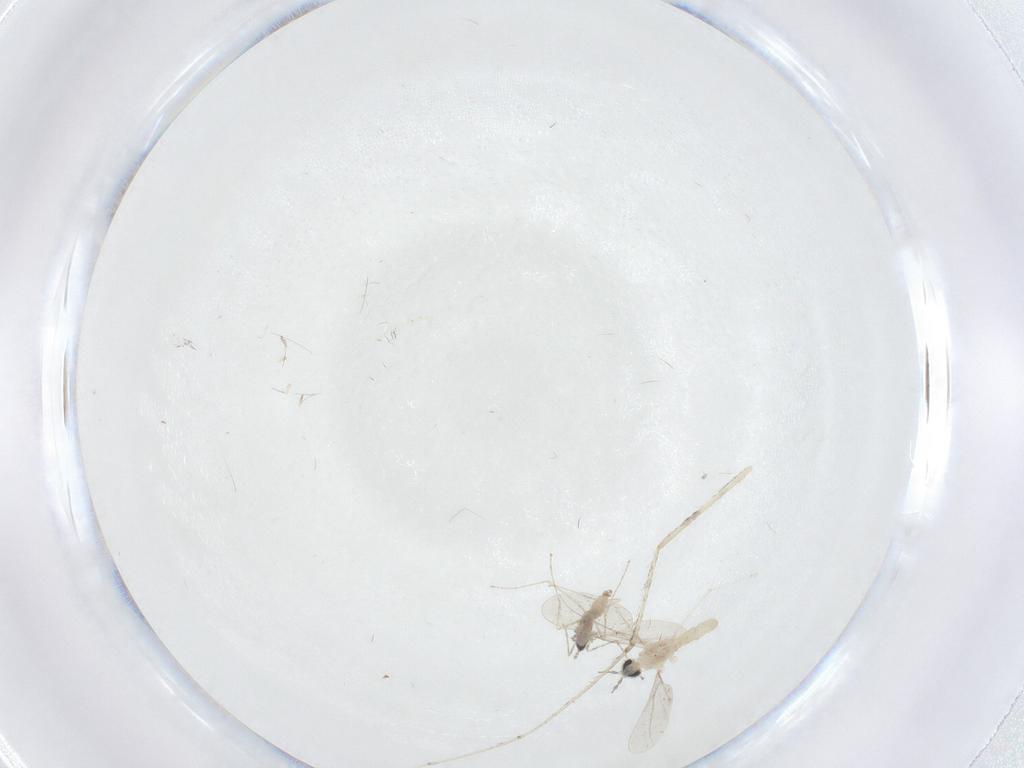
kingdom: Animalia
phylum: Arthropoda
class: Insecta
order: Diptera
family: Cecidomyiidae
